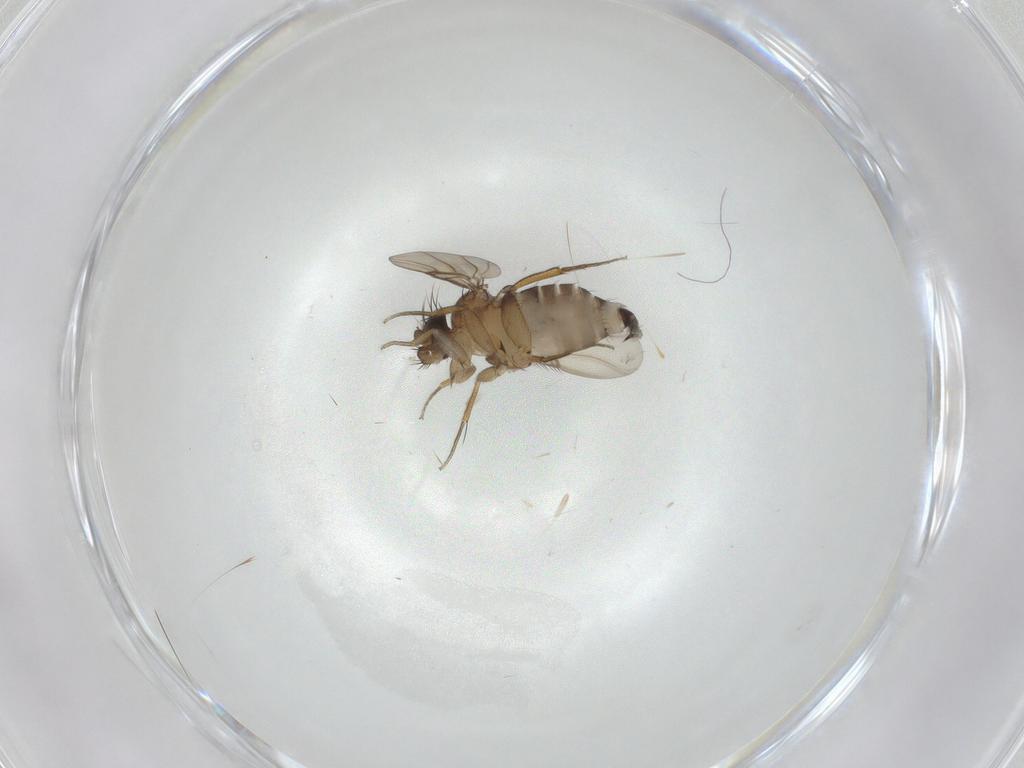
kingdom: Animalia
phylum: Arthropoda
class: Insecta
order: Diptera
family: Phoridae
